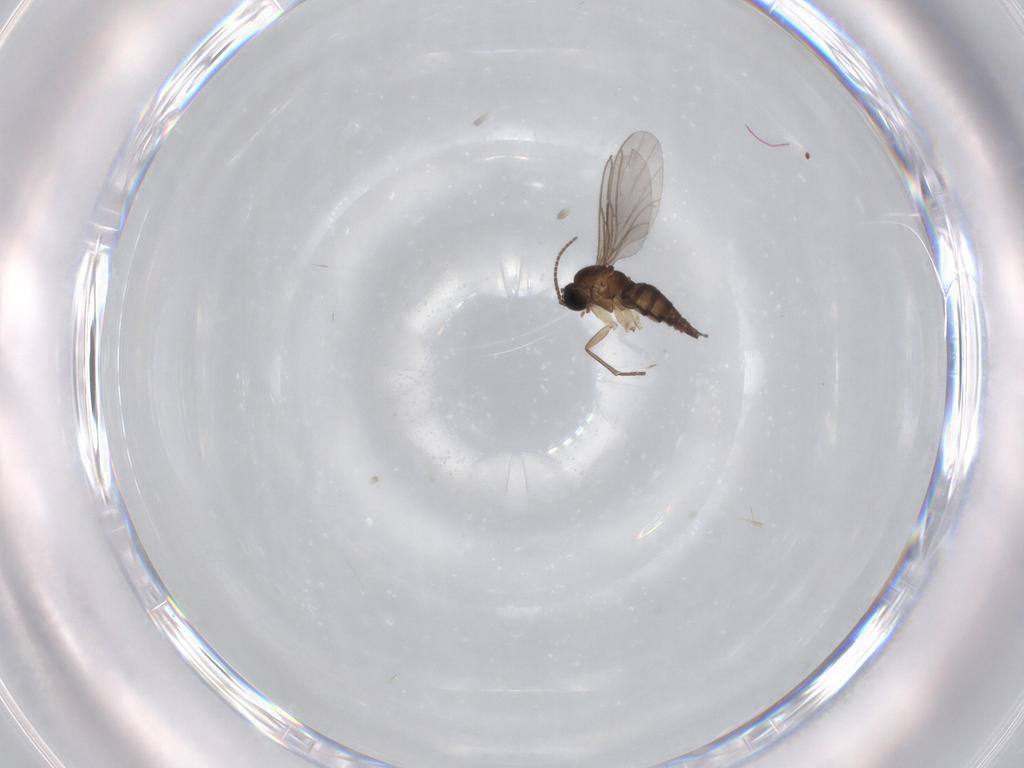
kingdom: Animalia
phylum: Arthropoda
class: Insecta
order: Diptera
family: Sciaridae
